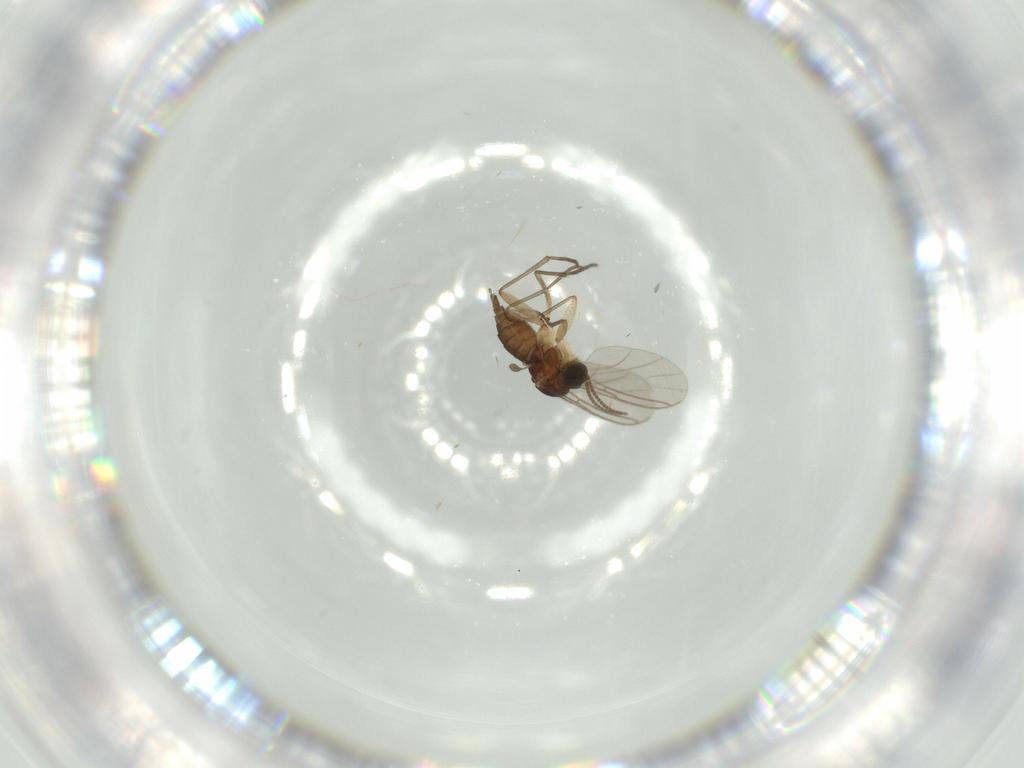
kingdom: Animalia
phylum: Arthropoda
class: Insecta
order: Diptera
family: Sciaridae
